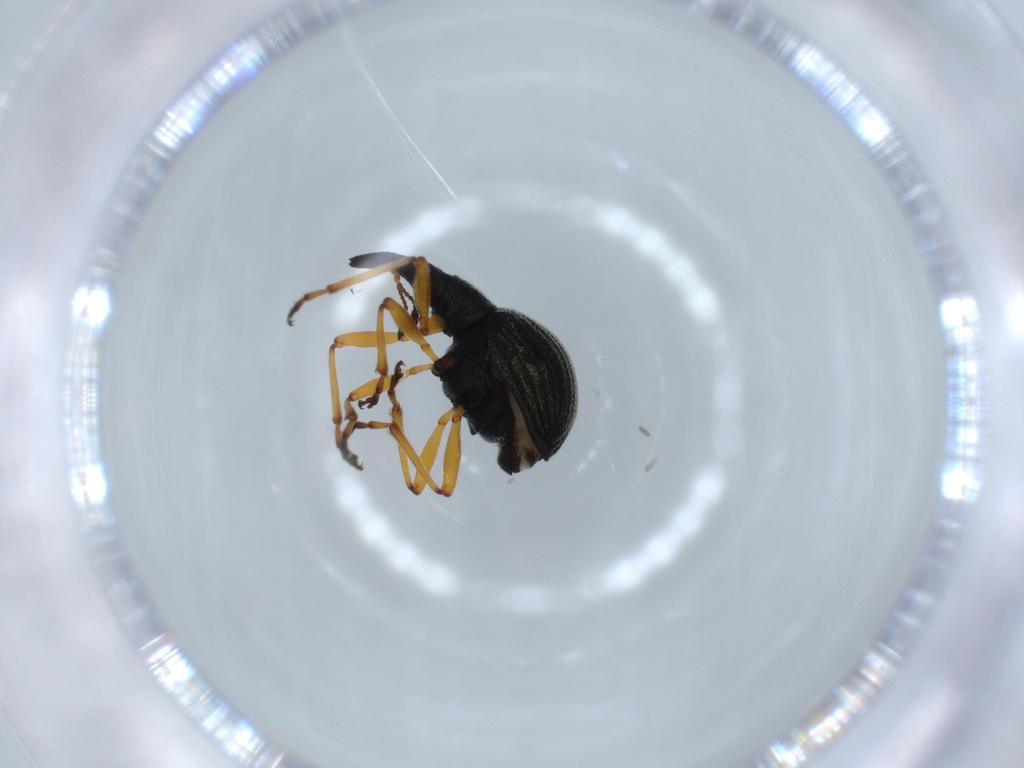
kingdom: Animalia
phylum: Arthropoda
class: Insecta
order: Coleoptera
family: Brentidae
